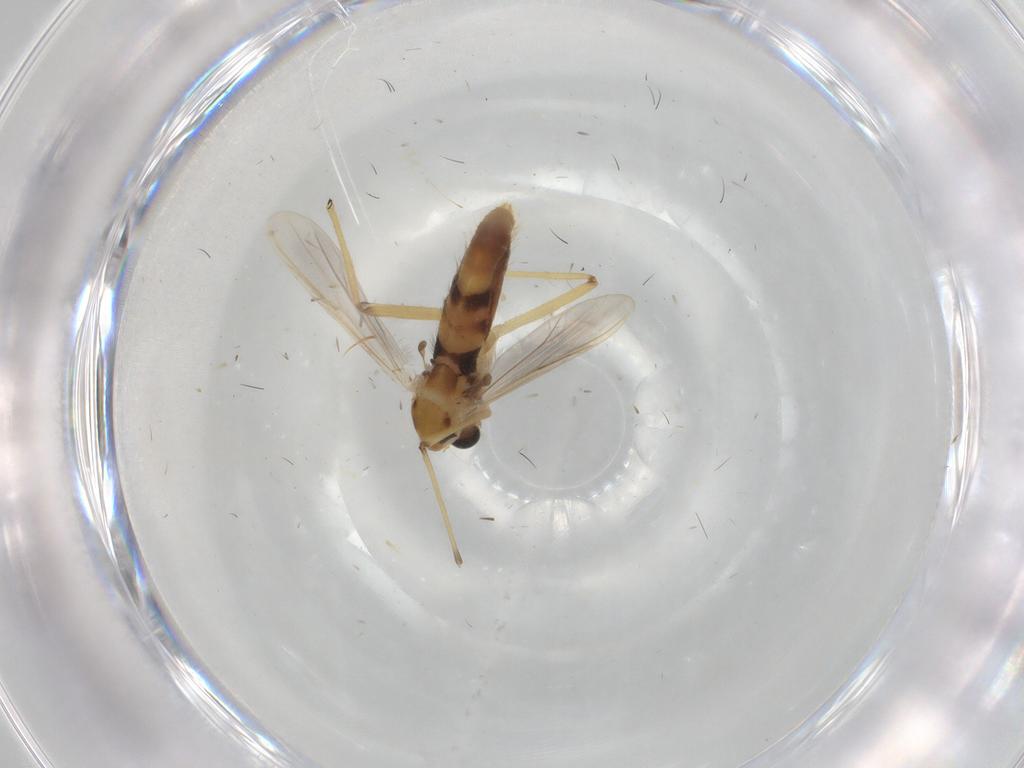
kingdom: Animalia
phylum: Arthropoda
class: Insecta
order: Diptera
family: Chironomidae
